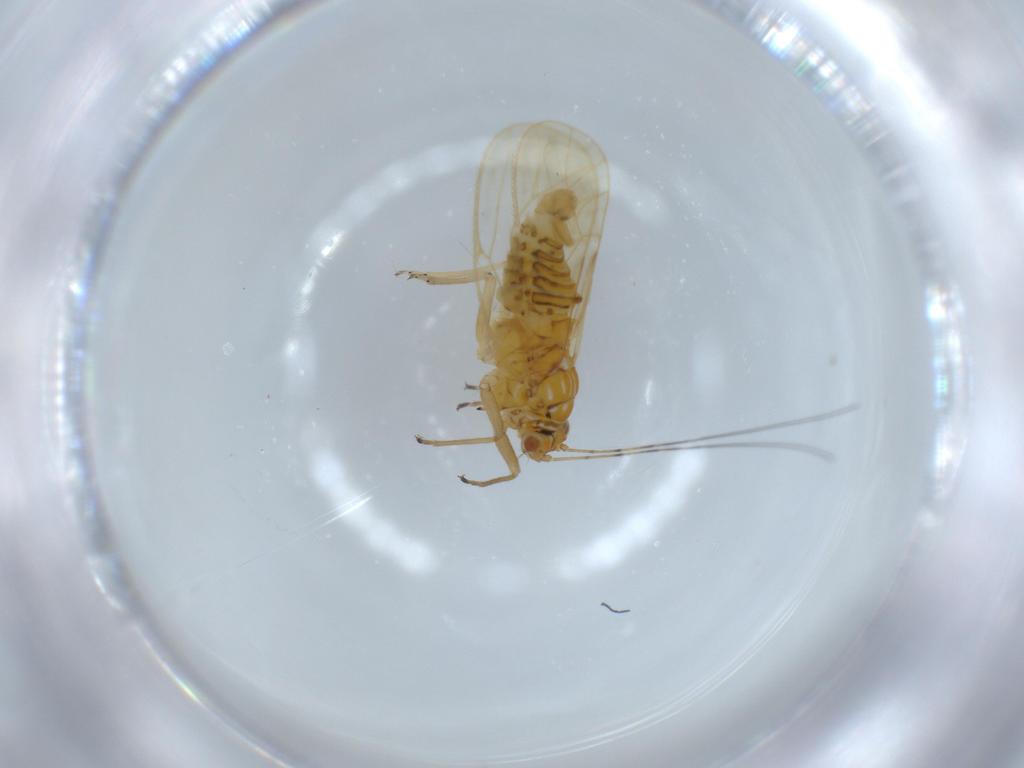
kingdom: Animalia
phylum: Arthropoda
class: Insecta
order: Hemiptera
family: Psyllidae
